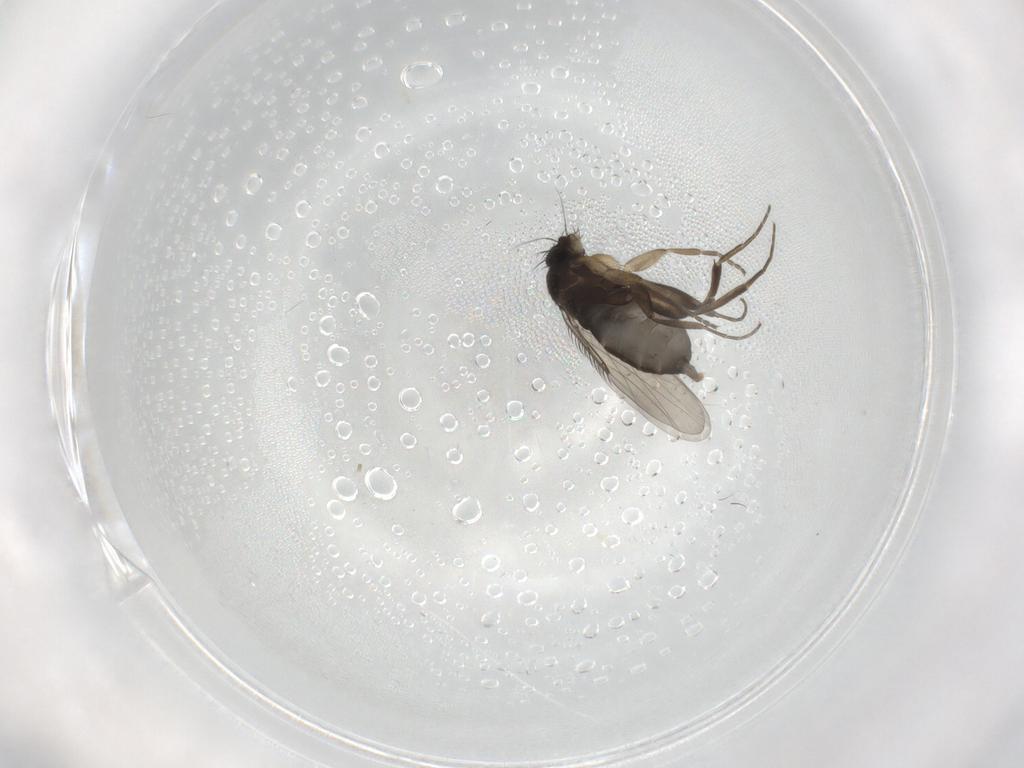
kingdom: Animalia
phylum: Arthropoda
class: Insecta
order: Diptera
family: Phoridae
